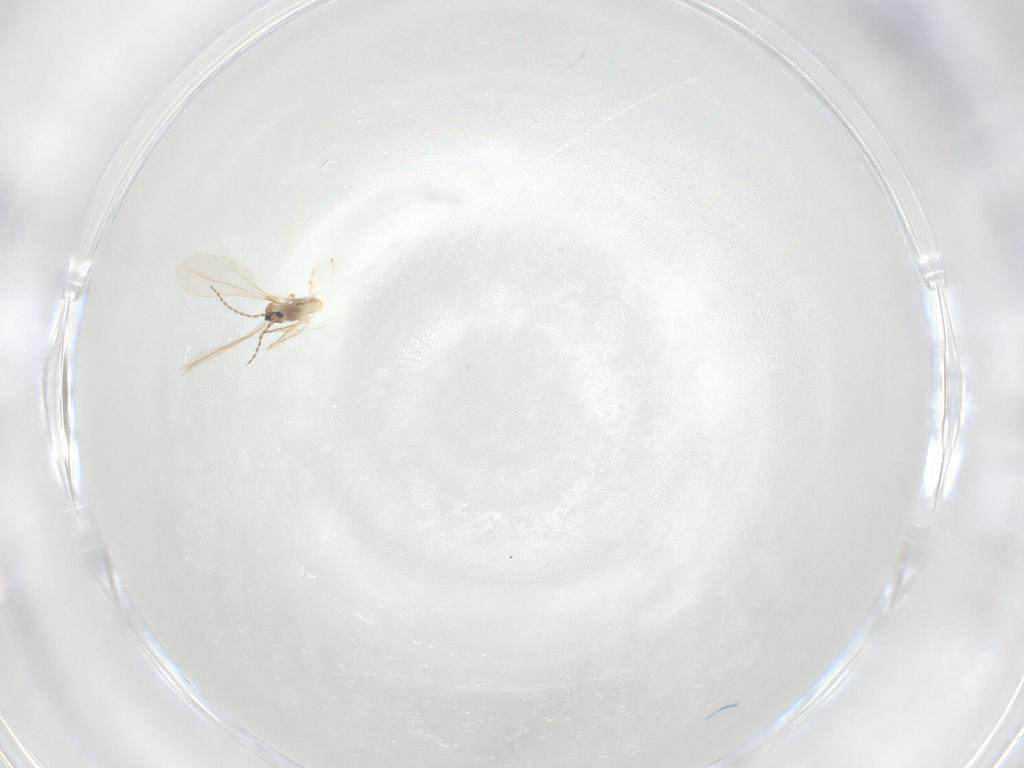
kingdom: Animalia
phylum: Arthropoda
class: Insecta
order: Diptera
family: Cecidomyiidae
